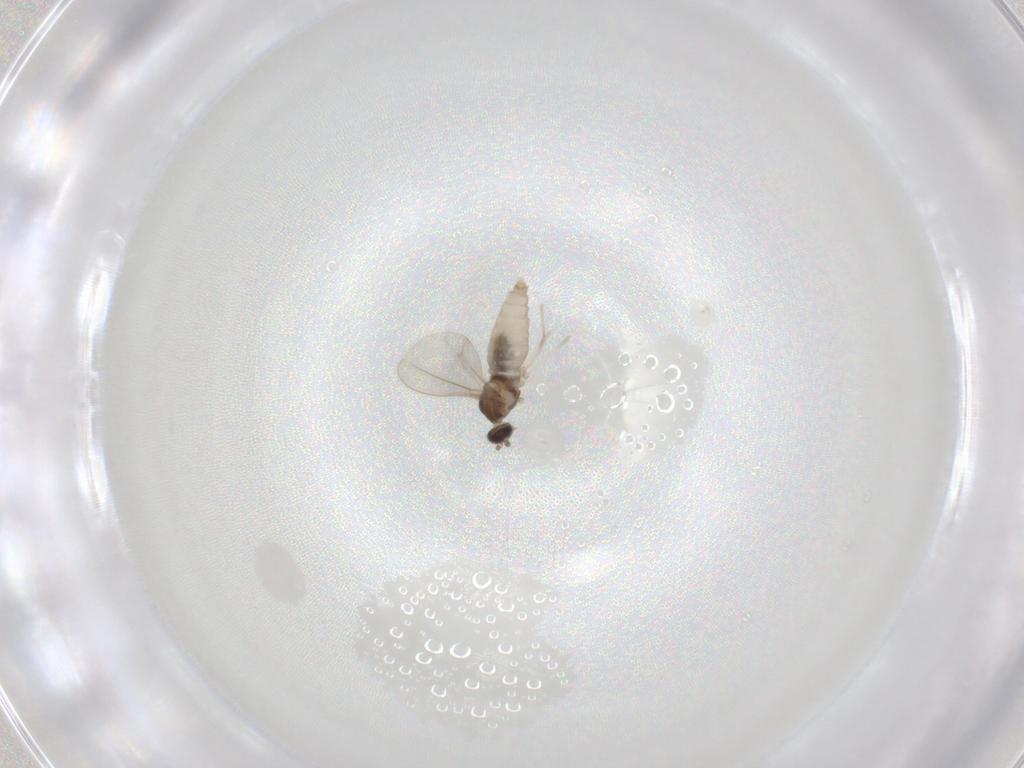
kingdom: Animalia
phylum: Arthropoda
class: Insecta
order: Diptera
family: Cecidomyiidae
